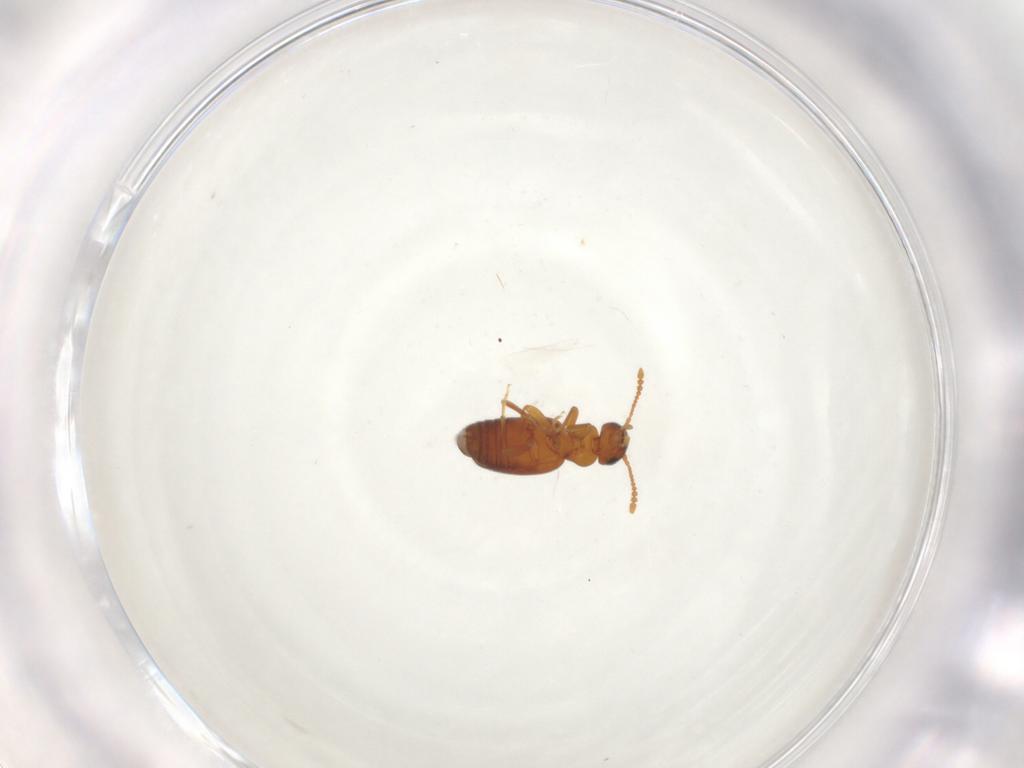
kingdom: Animalia
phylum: Arthropoda
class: Insecta
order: Coleoptera
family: Anthicidae
